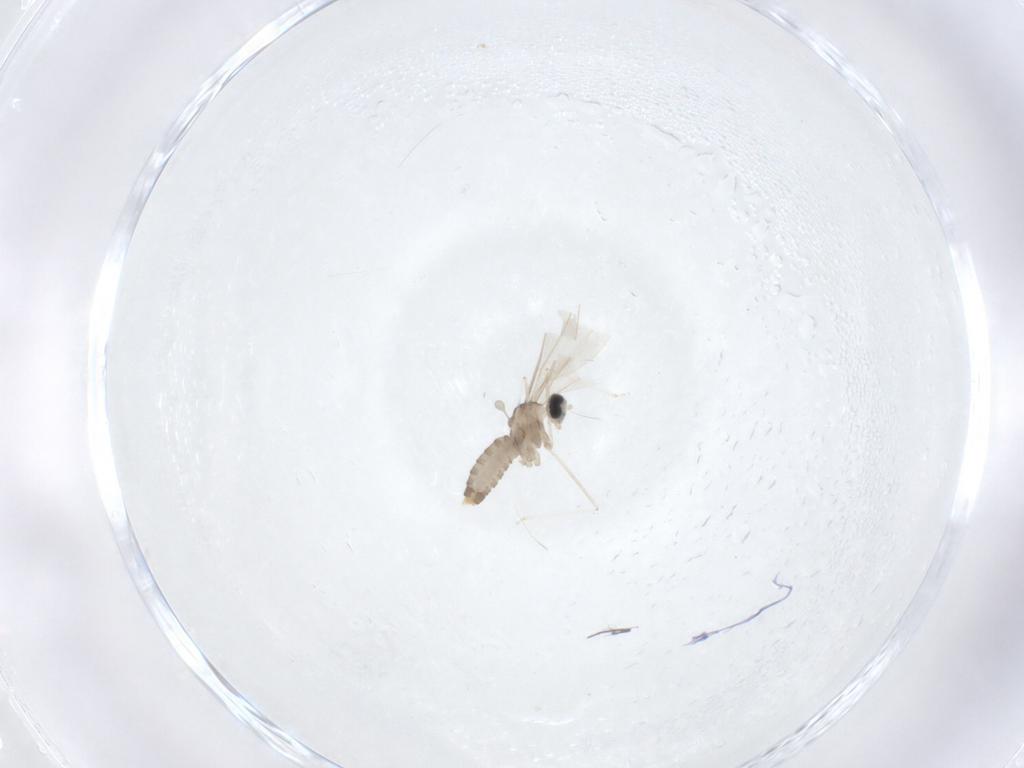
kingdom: Animalia
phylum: Arthropoda
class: Insecta
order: Diptera
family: Cecidomyiidae
